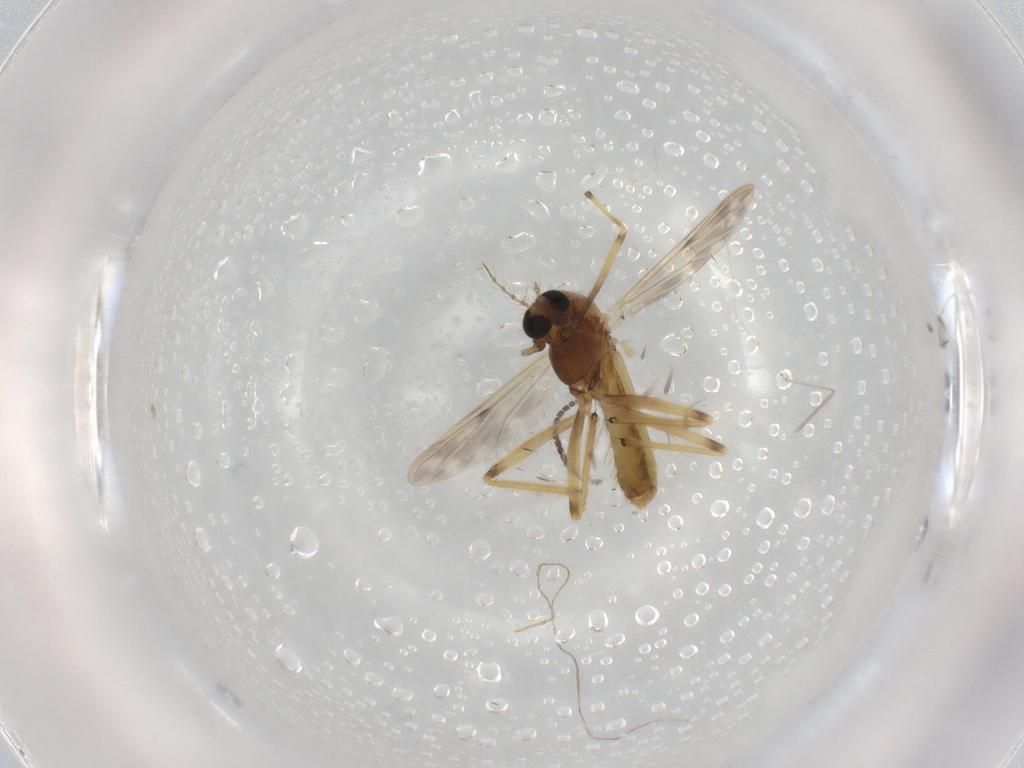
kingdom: Animalia
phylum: Arthropoda
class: Insecta
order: Diptera
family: Chironomidae
